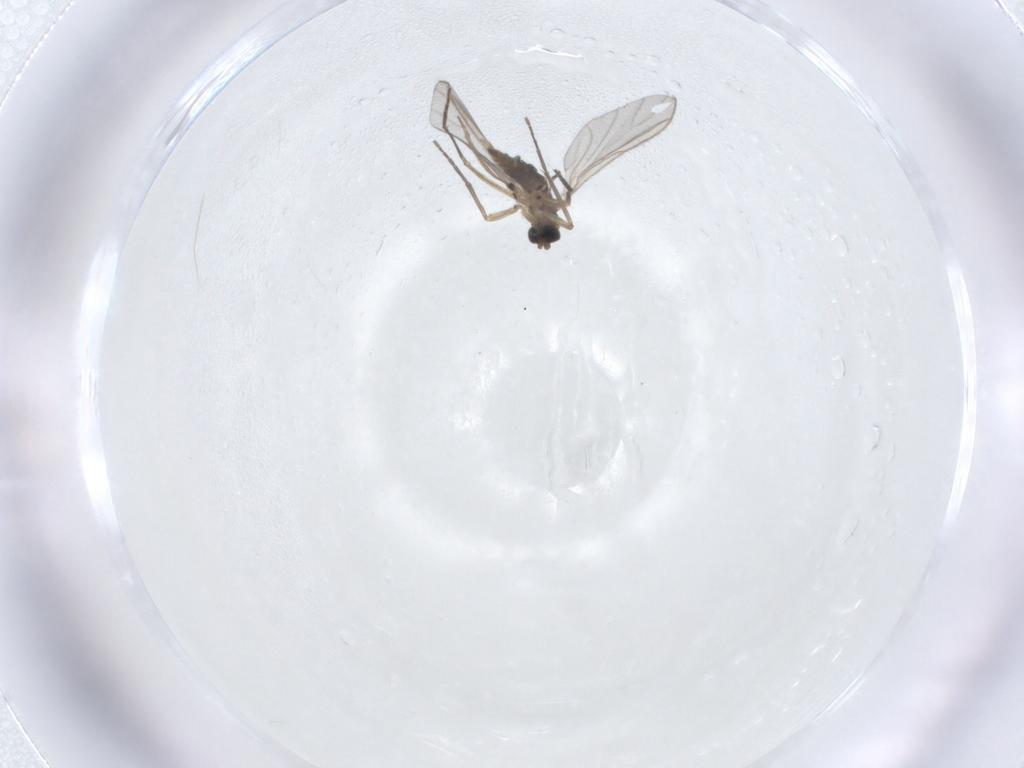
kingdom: Animalia
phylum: Arthropoda
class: Insecta
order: Diptera
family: Sciaridae
